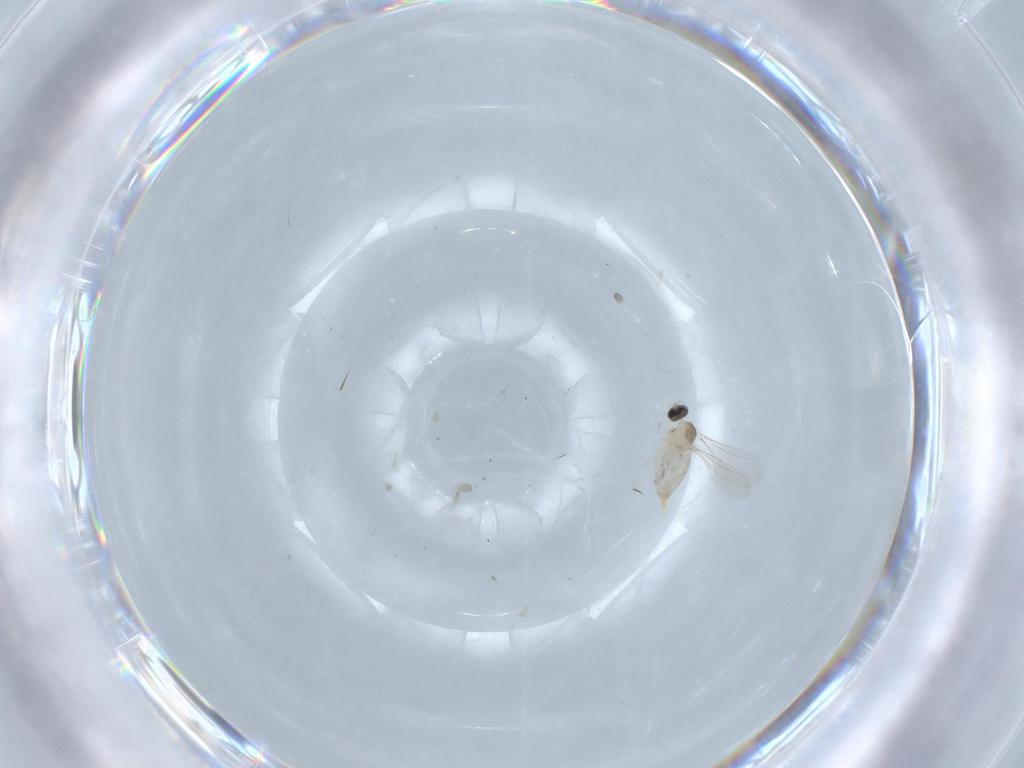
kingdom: Animalia
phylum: Arthropoda
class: Insecta
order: Diptera
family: Cecidomyiidae
